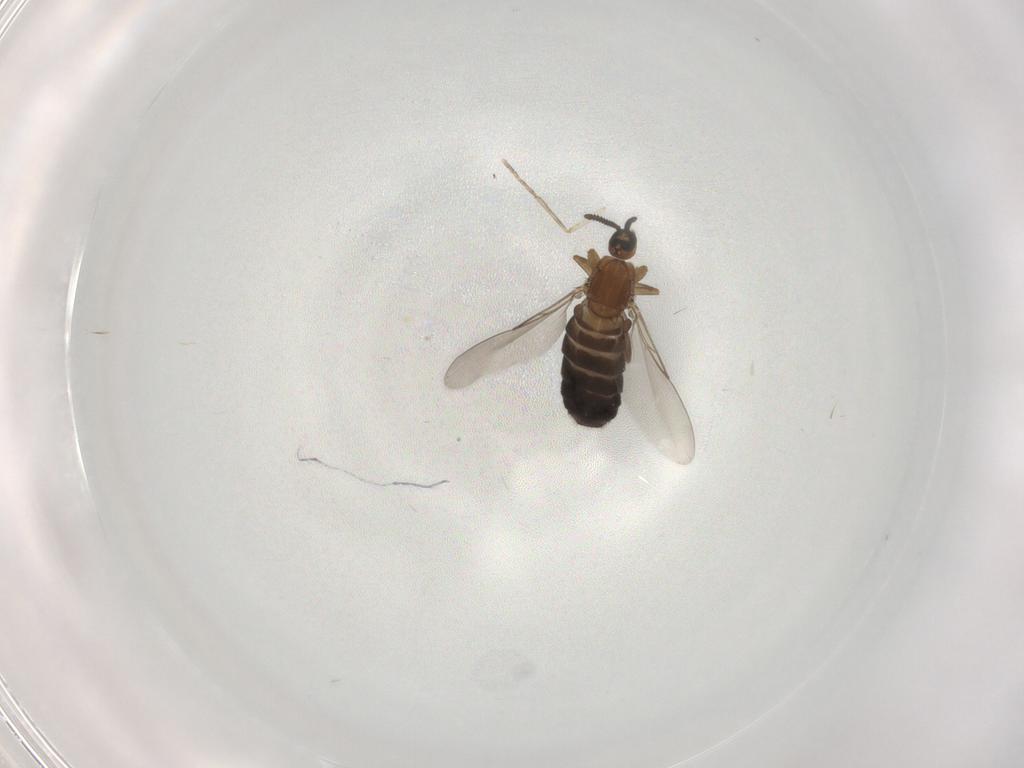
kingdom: Animalia
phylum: Arthropoda
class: Insecta
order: Diptera
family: Scatopsidae
